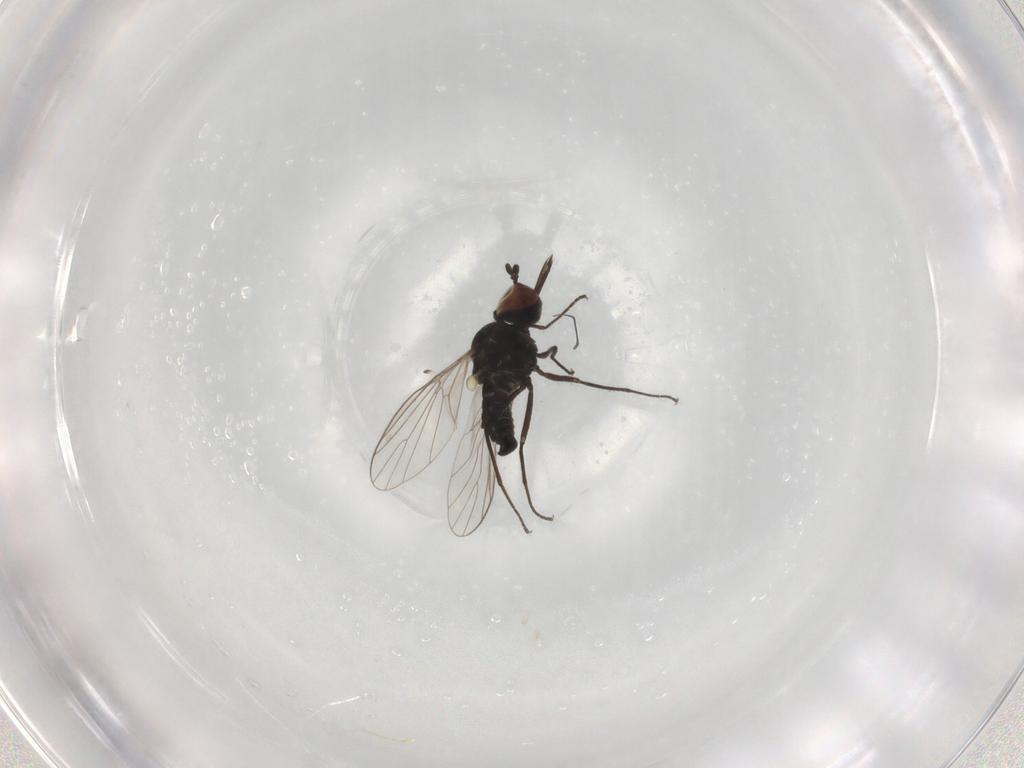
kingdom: Animalia
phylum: Arthropoda
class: Insecta
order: Diptera
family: Bombyliidae
